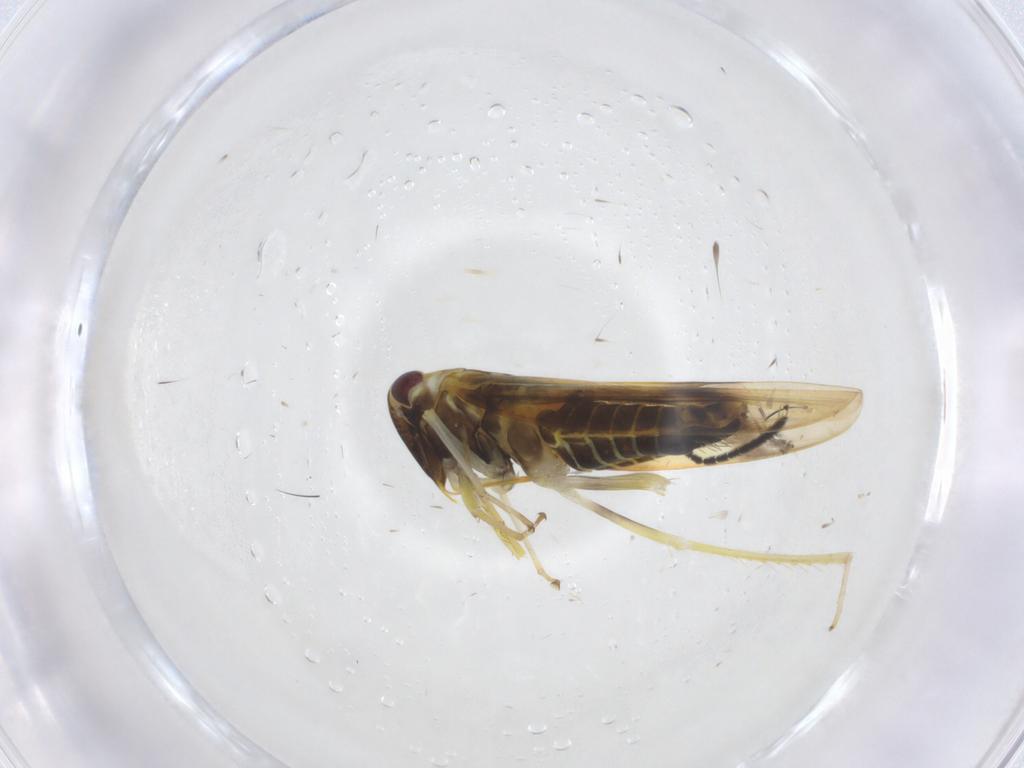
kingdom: Animalia
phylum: Arthropoda
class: Insecta
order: Hemiptera
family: Cicadellidae
